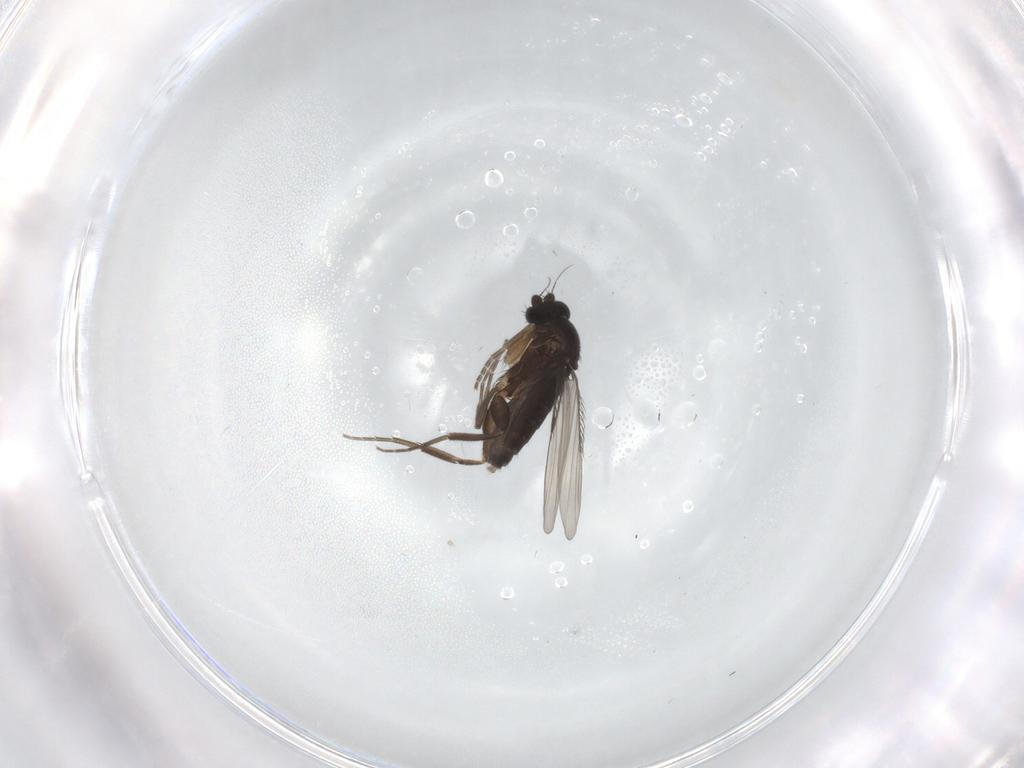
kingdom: Animalia
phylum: Arthropoda
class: Insecta
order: Diptera
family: Phoridae
